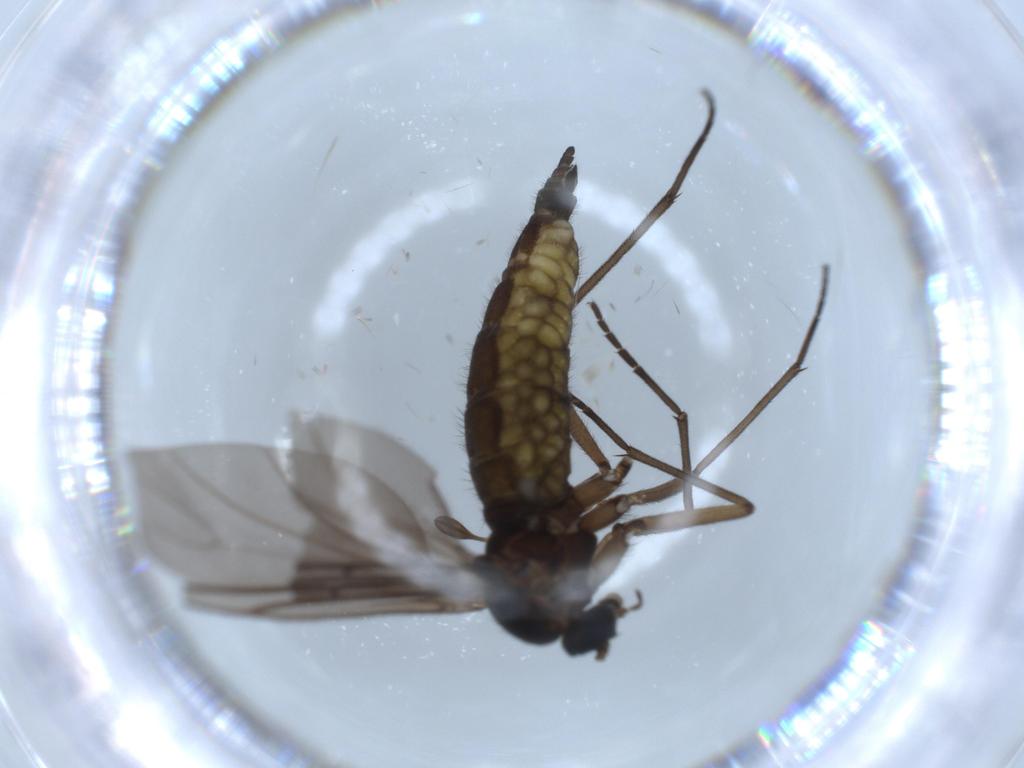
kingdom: Animalia
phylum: Arthropoda
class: Insecta
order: Diptera
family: Sciaridae
